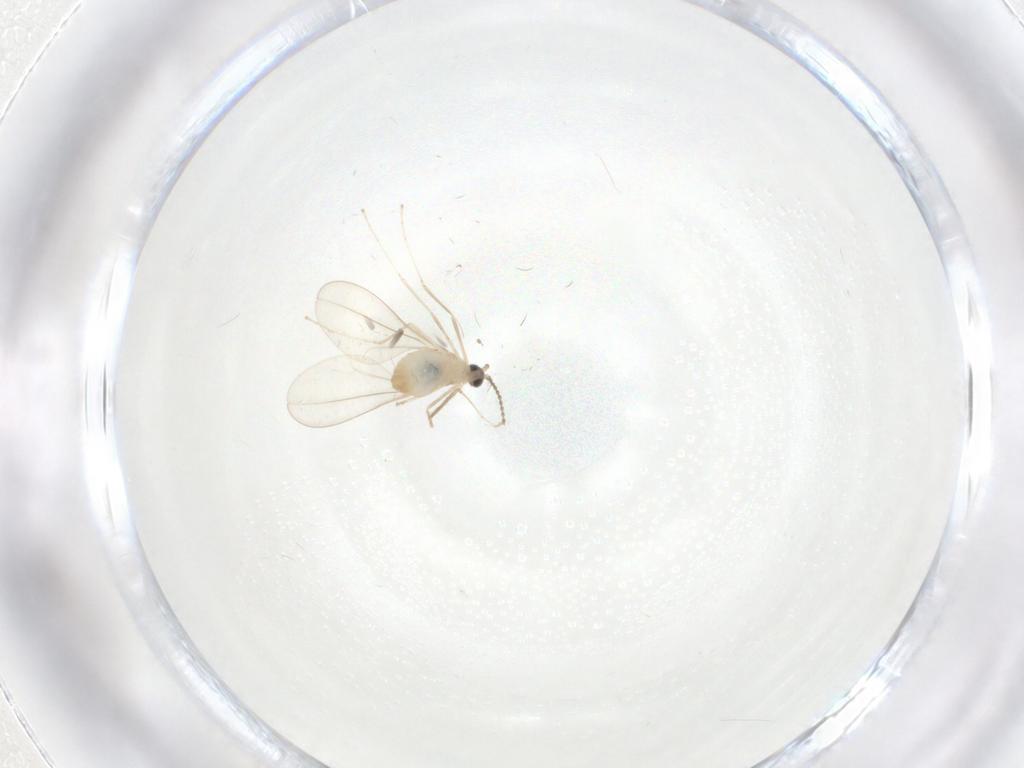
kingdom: Animalia
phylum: Arthropoda
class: Insecta
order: Diptera
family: Cecidomyiidae
